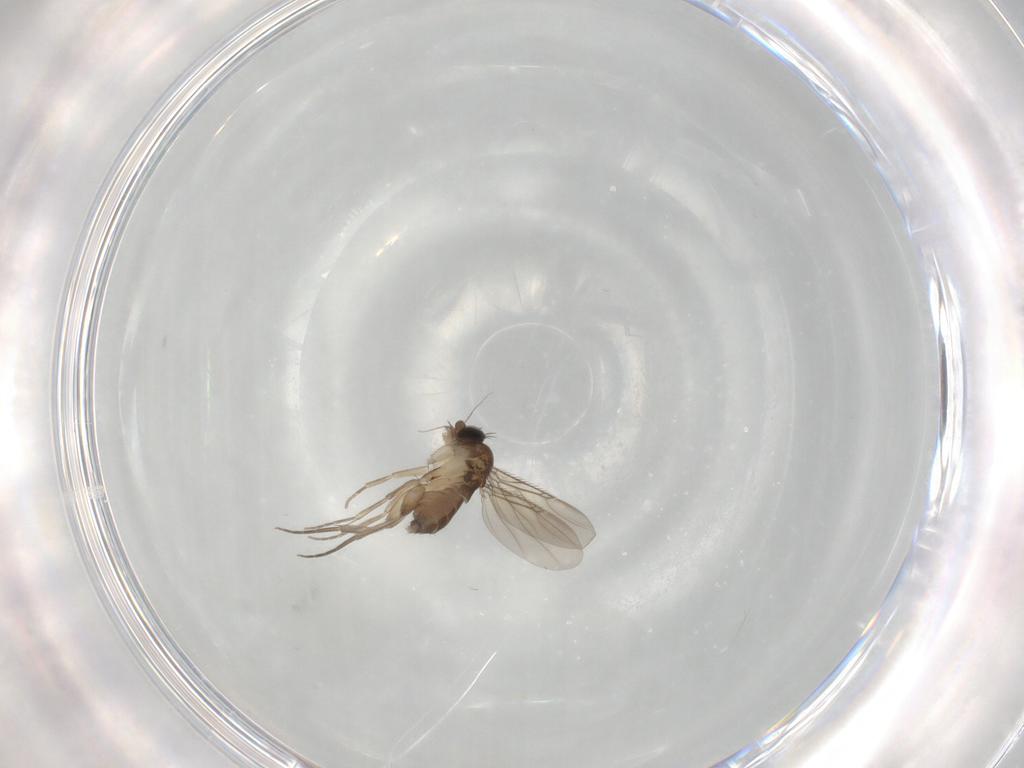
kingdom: Animalia
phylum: Arthropoda
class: Insecta
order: Diptera
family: Phoridae
